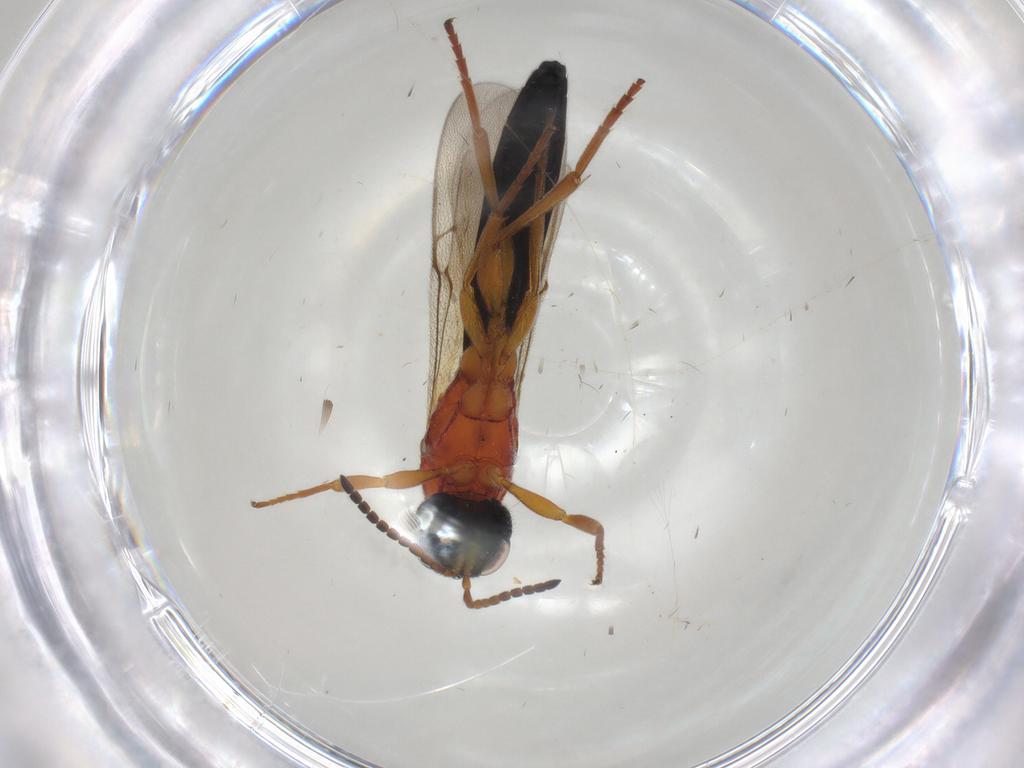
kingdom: Animalia
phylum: Arthropoda
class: Insecta
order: Hymenoptera
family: Scelionidae
